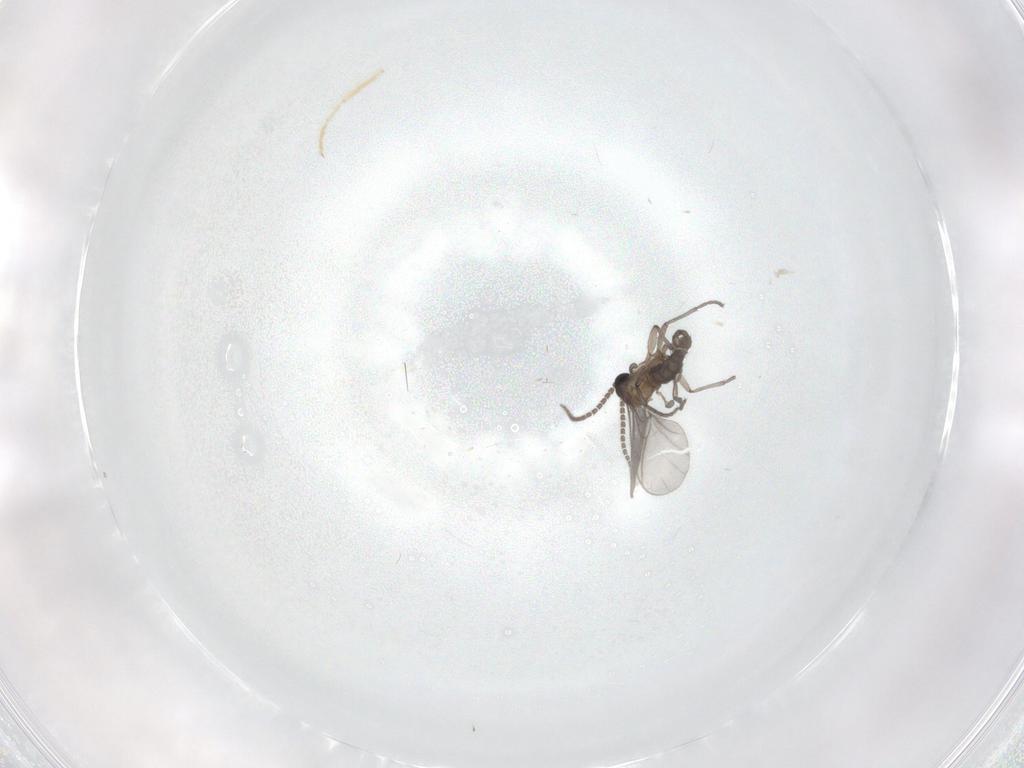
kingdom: Animalia
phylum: Arthropoda
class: Insecta
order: Diptera
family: Sciaridae
